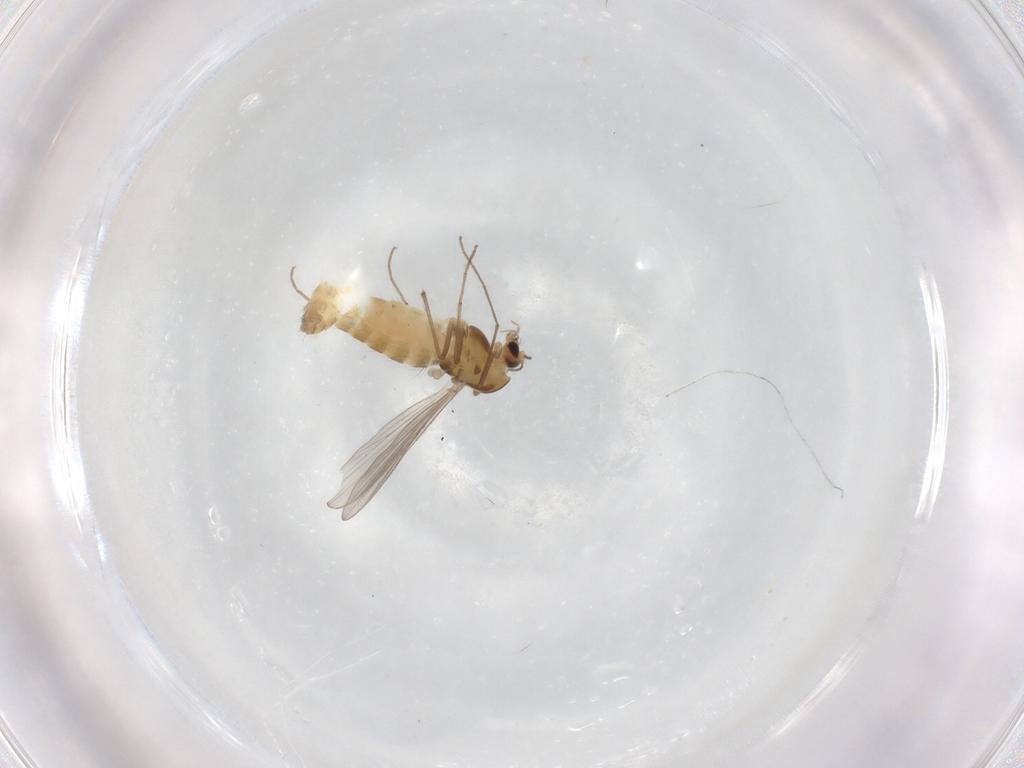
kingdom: Animalia
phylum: Arthropoda
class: Insecta
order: Diptera
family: Chironomidae
